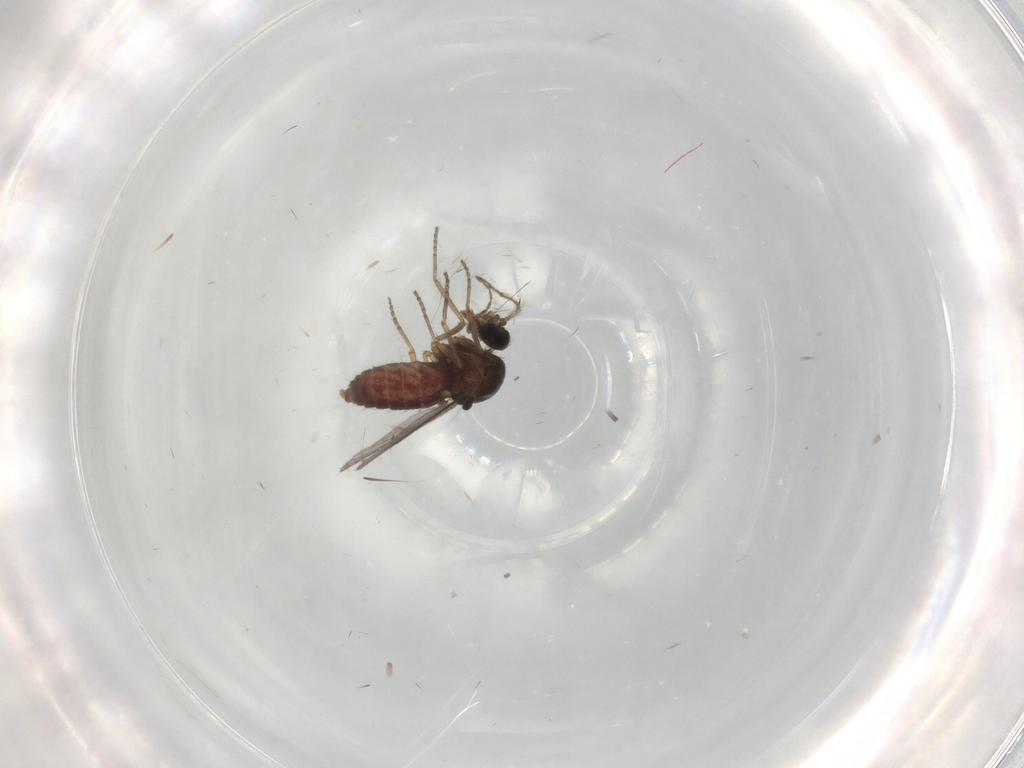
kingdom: Animalia
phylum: Arthropoda
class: Insecta
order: Diptera
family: Ceratopogonidae
